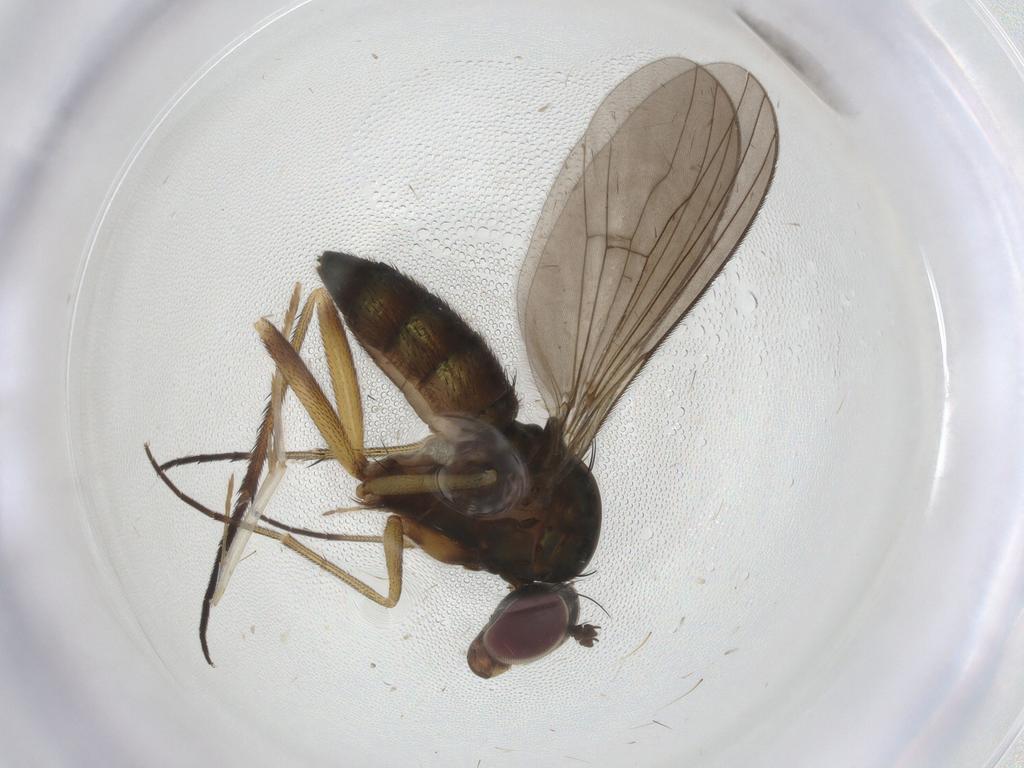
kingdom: Animalia
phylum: Arthropoda
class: Insecta
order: Diptera
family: Dolichopodidae
